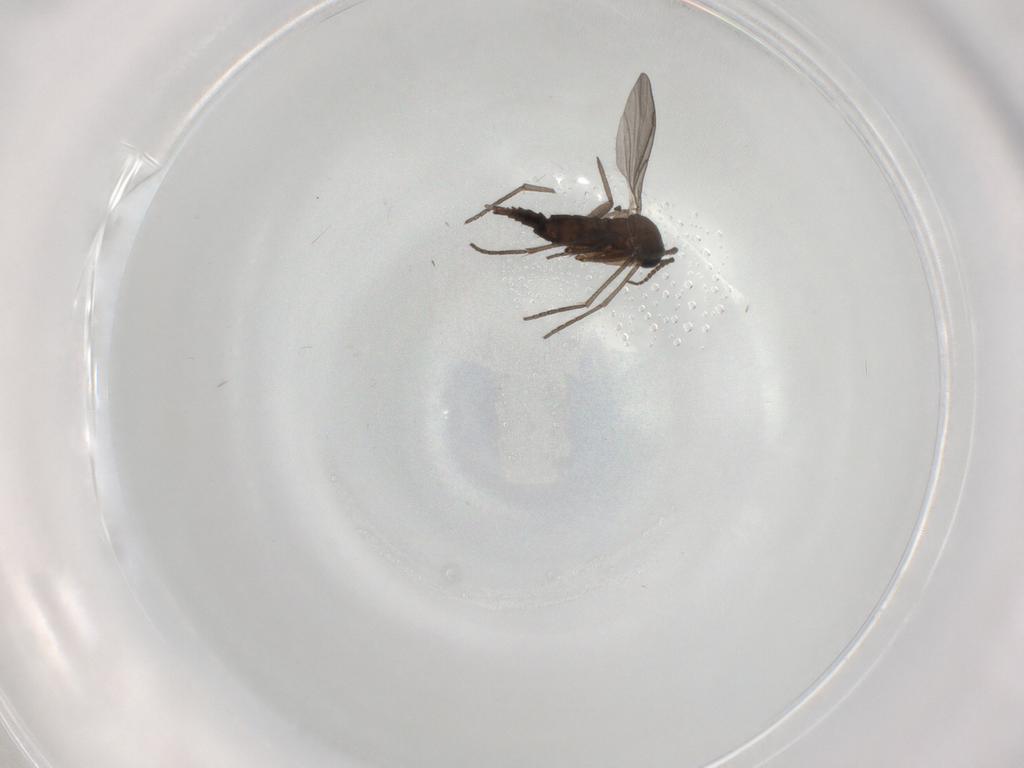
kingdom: Animalia
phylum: Arthropoda
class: Insecta
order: Diptera
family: Sciaridae
